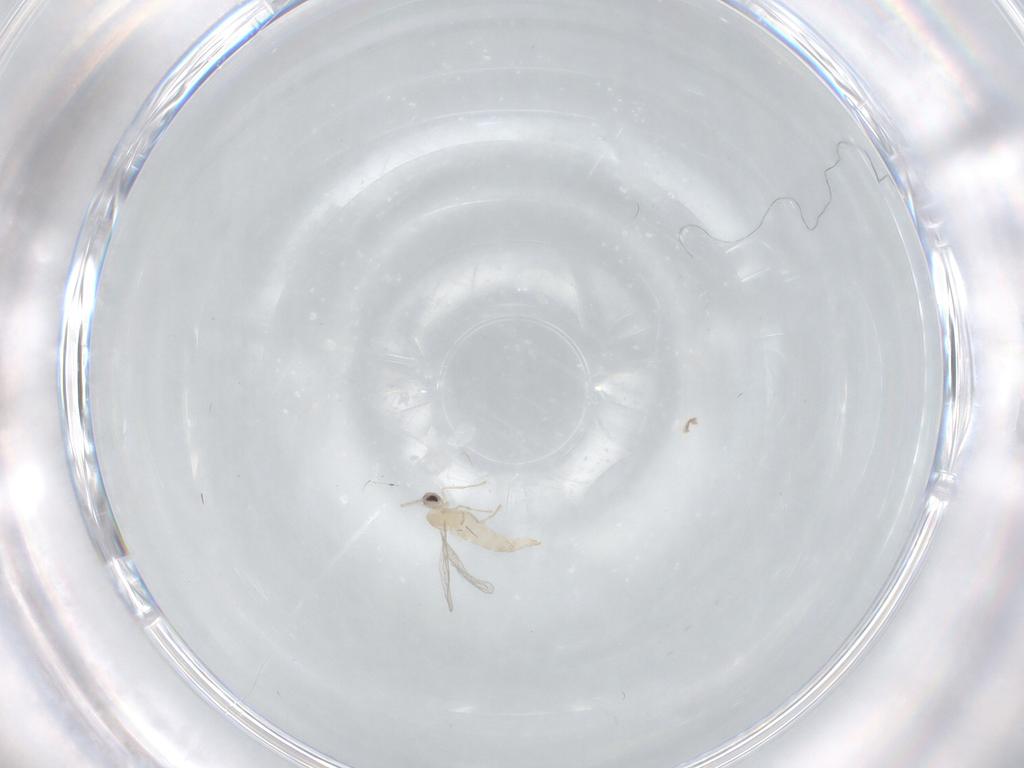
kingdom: Animalia
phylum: Arthropoda
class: Insecta
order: Diptera
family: Cecidomyiidae
